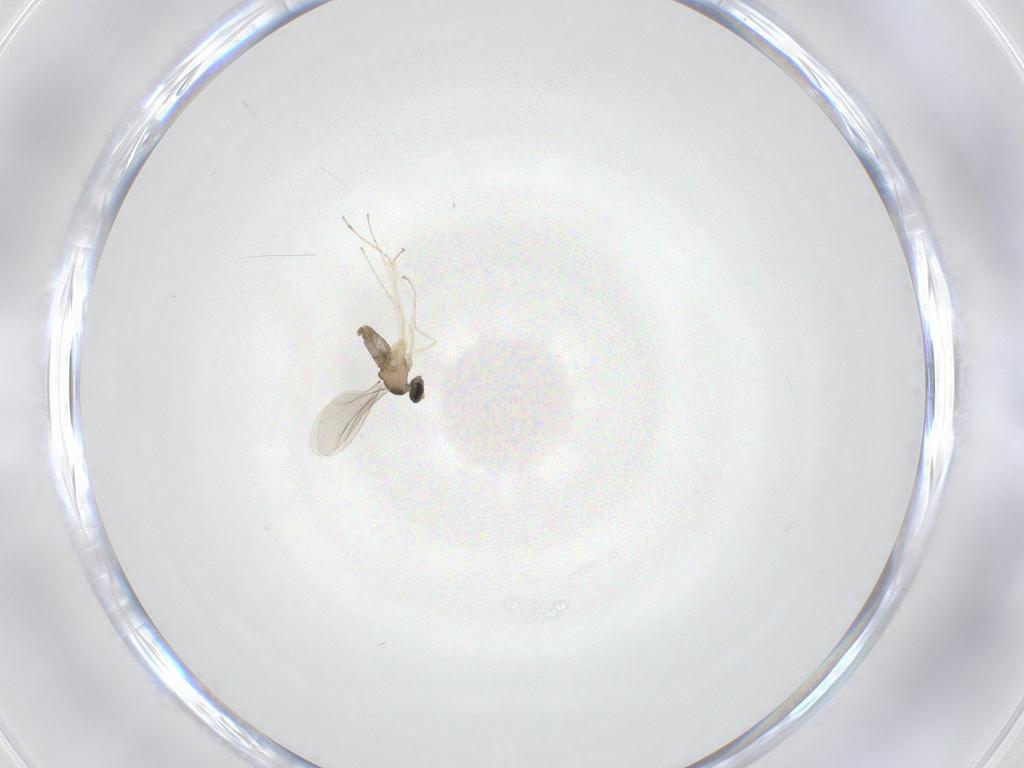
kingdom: Animalia
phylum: Arthropoda
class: Insecta
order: Diptera
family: Cecidomyiidae
